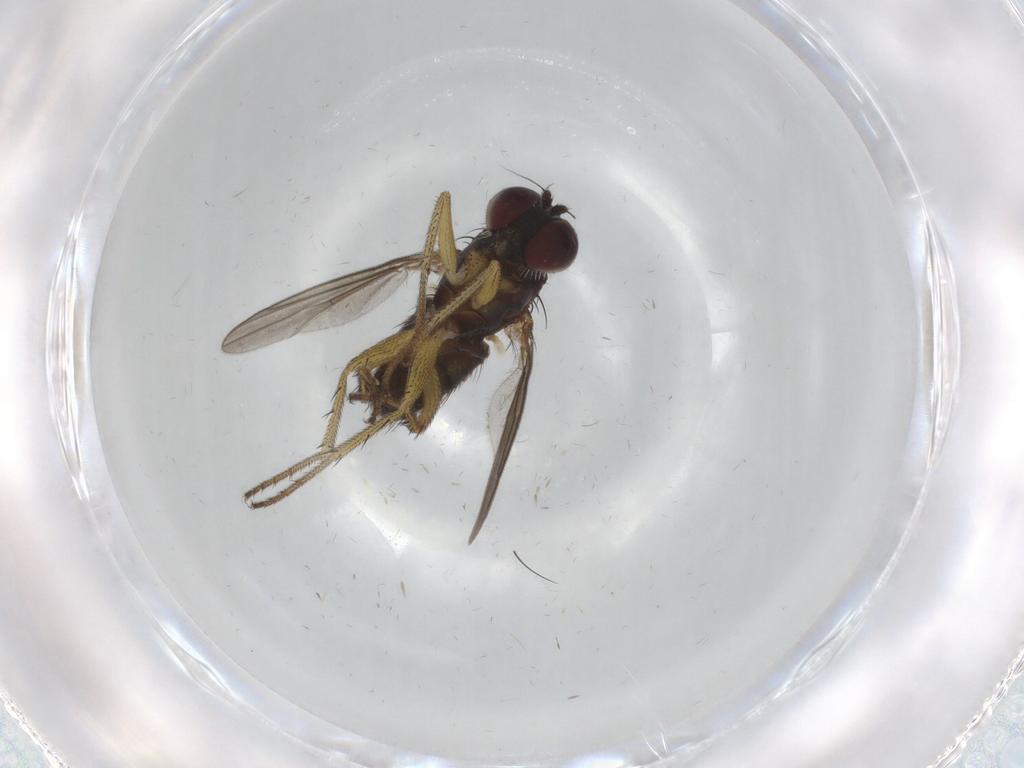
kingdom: Animalia
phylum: Arthropoda
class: Insecta
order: Diptera
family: Dolichopodidae
